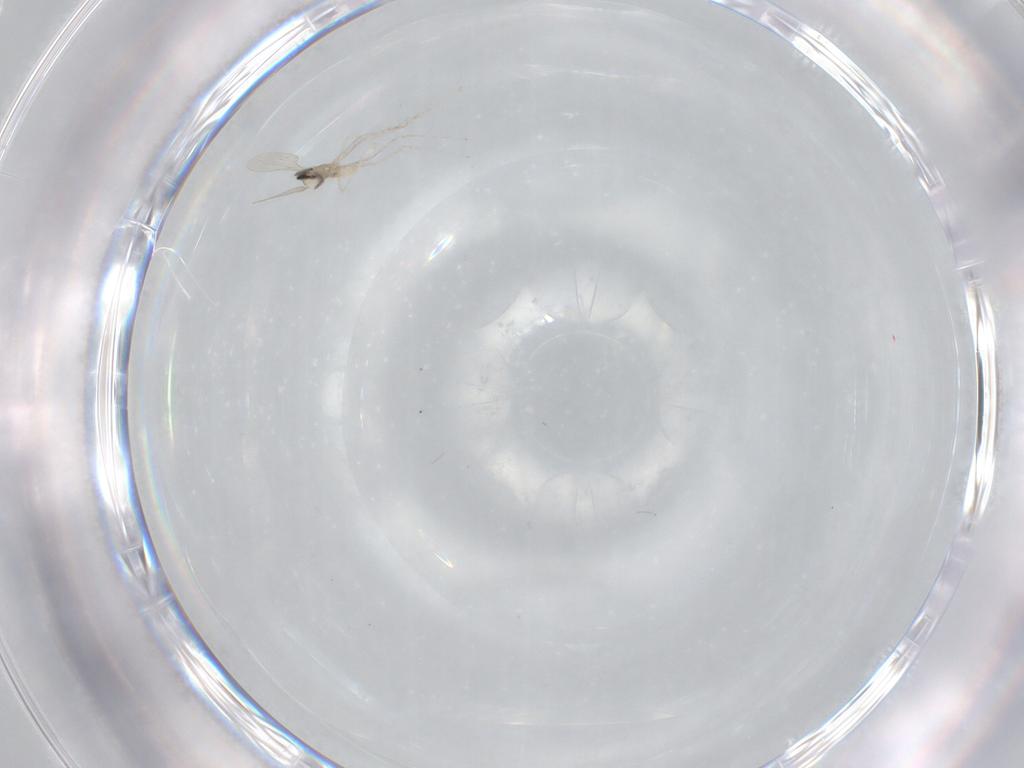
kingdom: Animalia
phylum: Arthropoda
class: Insecta
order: Diptera
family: Cecidomyiidae
